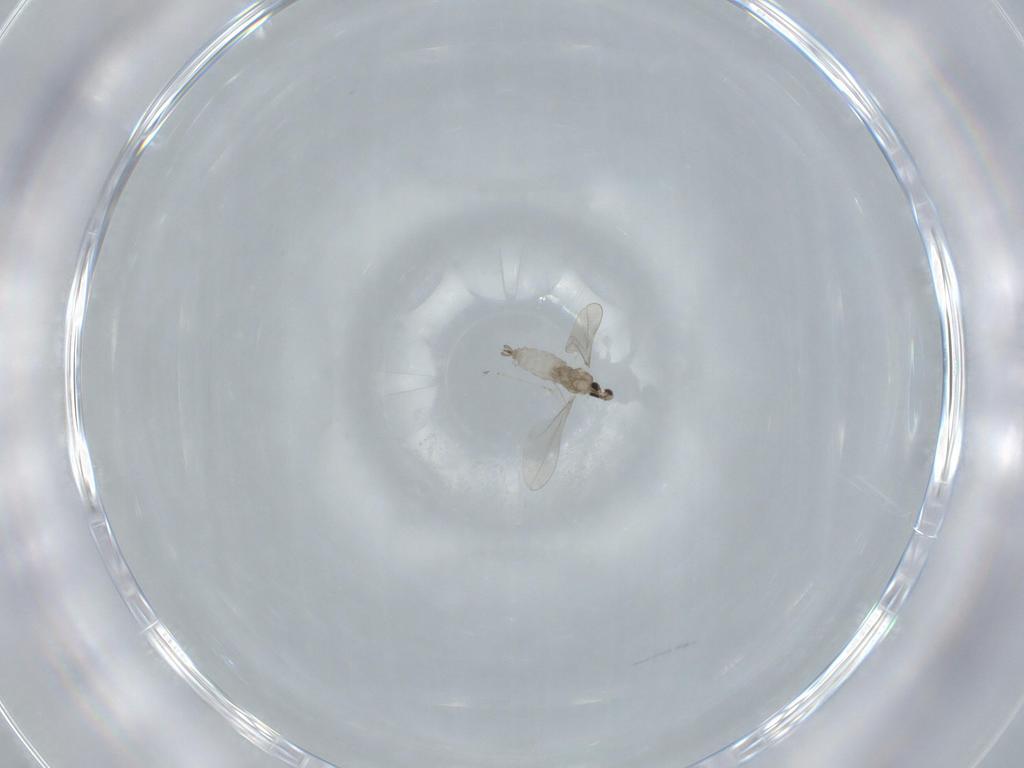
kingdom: Animalia
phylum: Arthropoda
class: Insecta
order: Diptera
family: Cecidomyiidae
